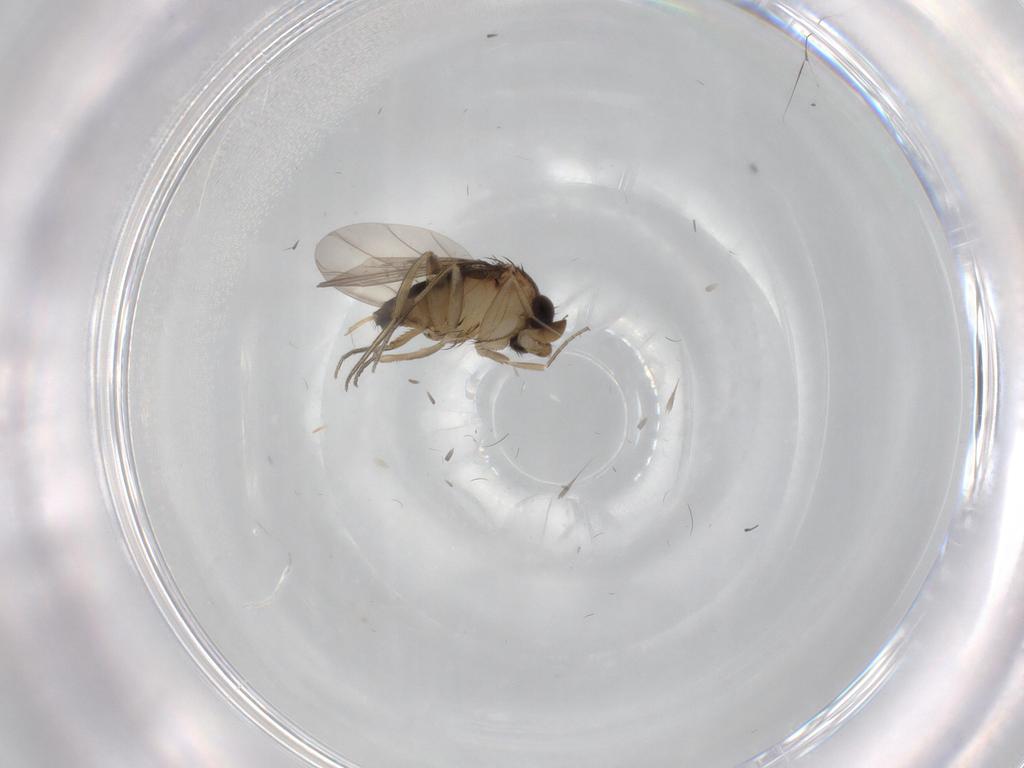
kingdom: Animalia
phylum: Arthropoda
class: Insecta
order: Diptera
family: Phoridae
